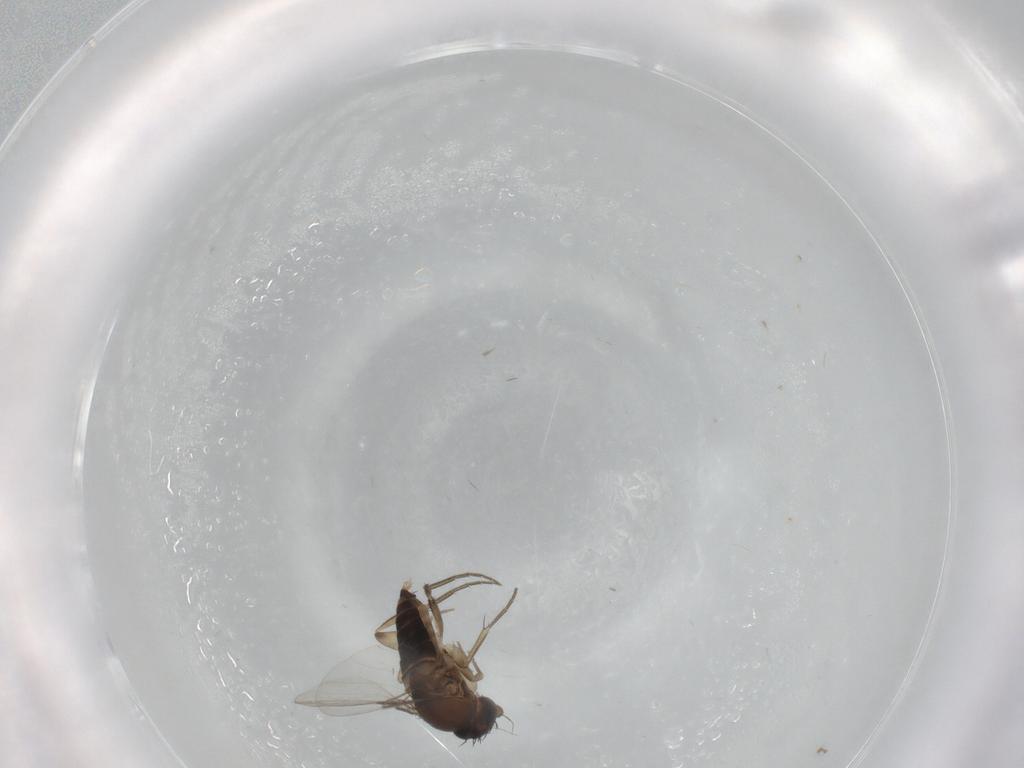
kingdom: Animalia
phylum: Arthropoda
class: Insecta
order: Diptera
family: Phoridae
